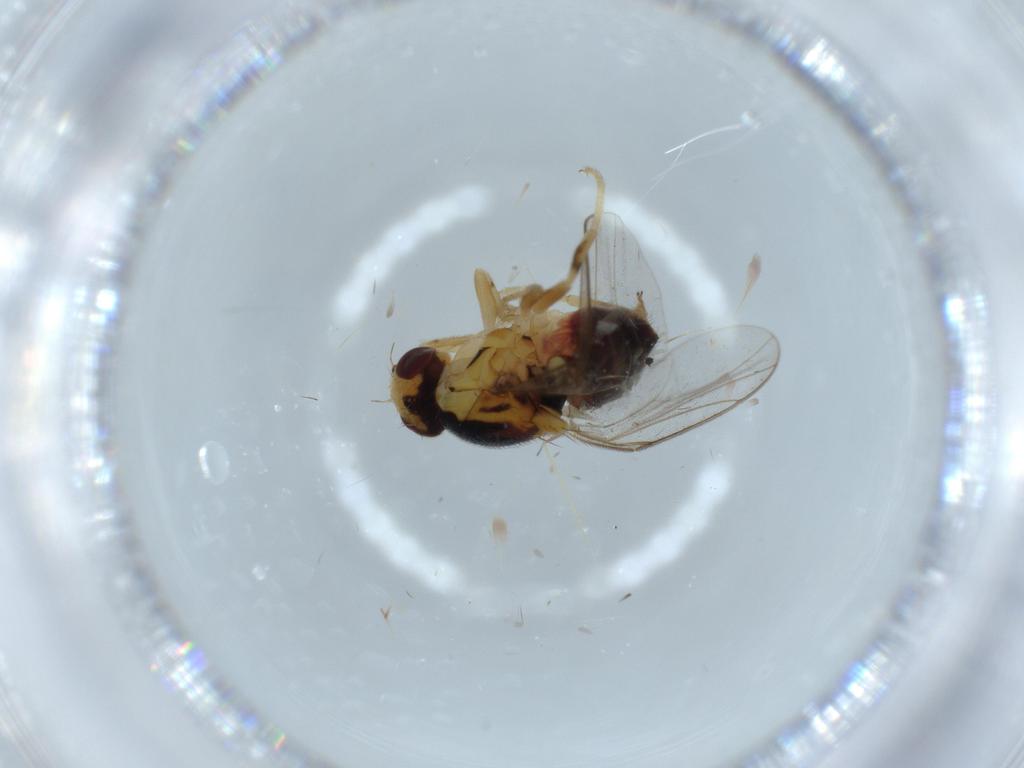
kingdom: Animalia
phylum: Arthropoda
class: Insecta
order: Diptera
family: Chloropidae
